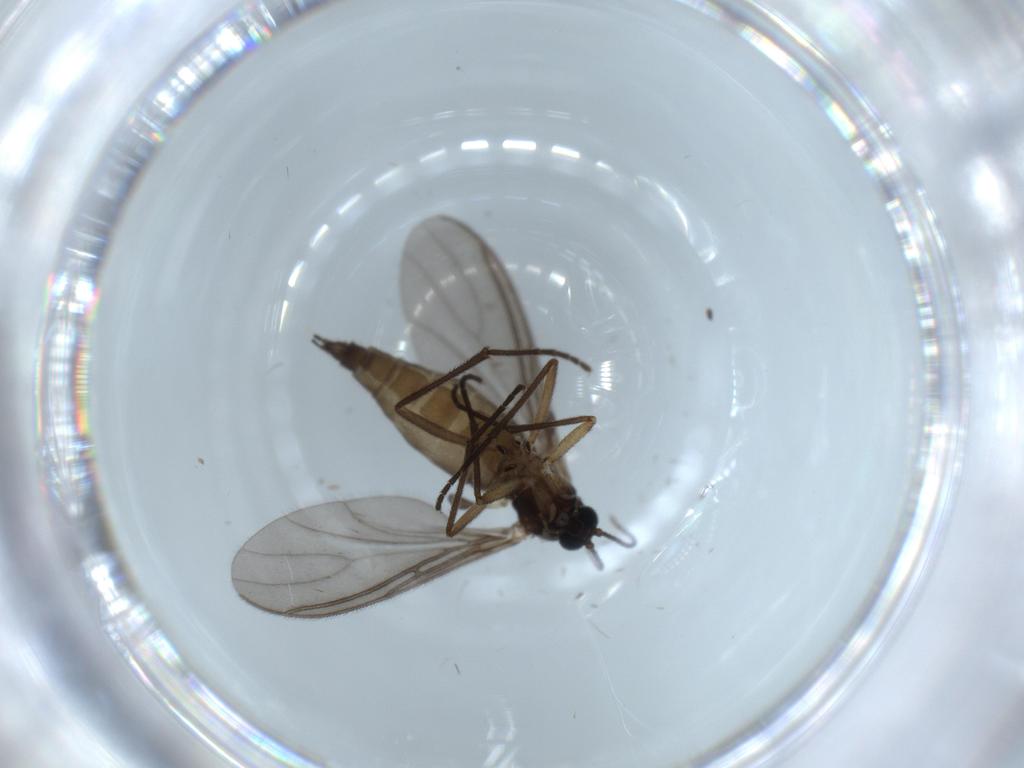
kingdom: Animalia
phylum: Arthropoda
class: Insecta
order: Diptera
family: Sciaridae
